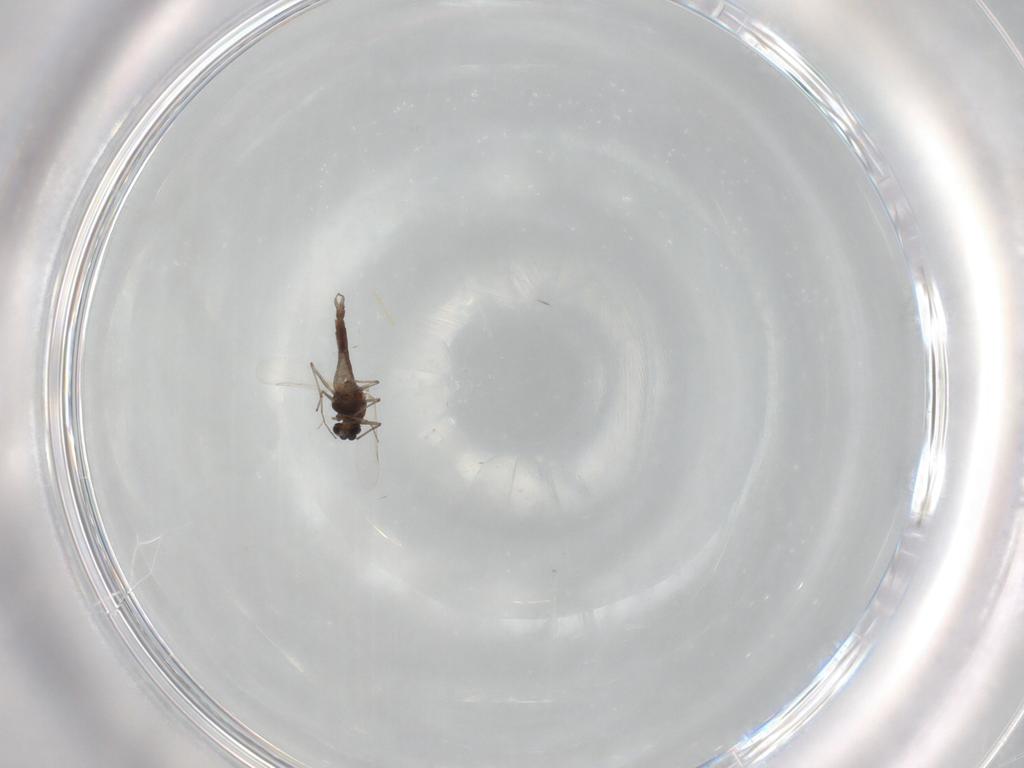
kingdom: Animalia
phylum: Arthropoda
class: Insecta
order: Diptera
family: Chironomidae
